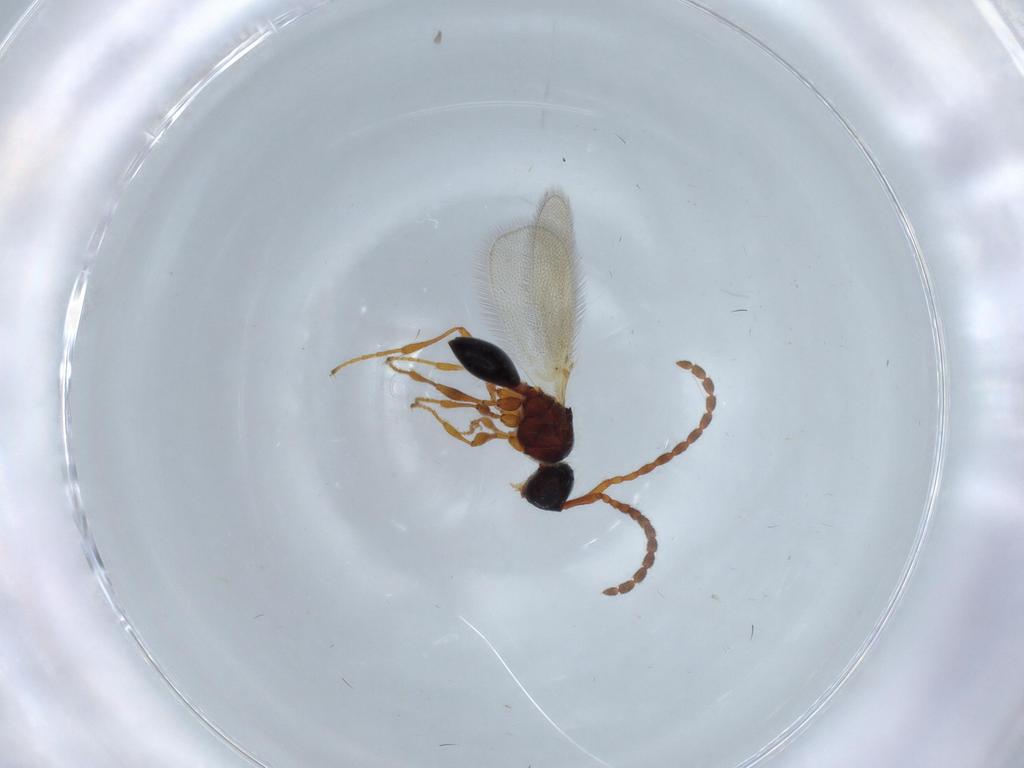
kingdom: Animalia
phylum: Arthropoda
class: Insecta
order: Hymenoptera
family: Diapriidae
